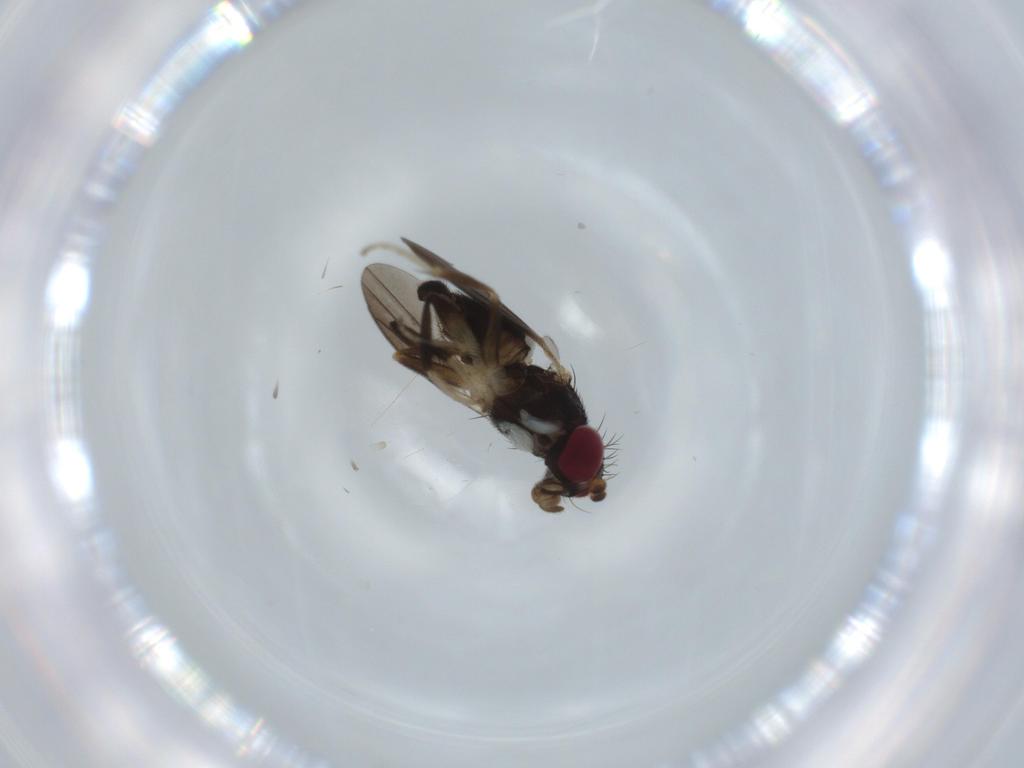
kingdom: Animalia
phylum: Arthropoda
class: Insecta
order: Diptera
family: Clusiidae
